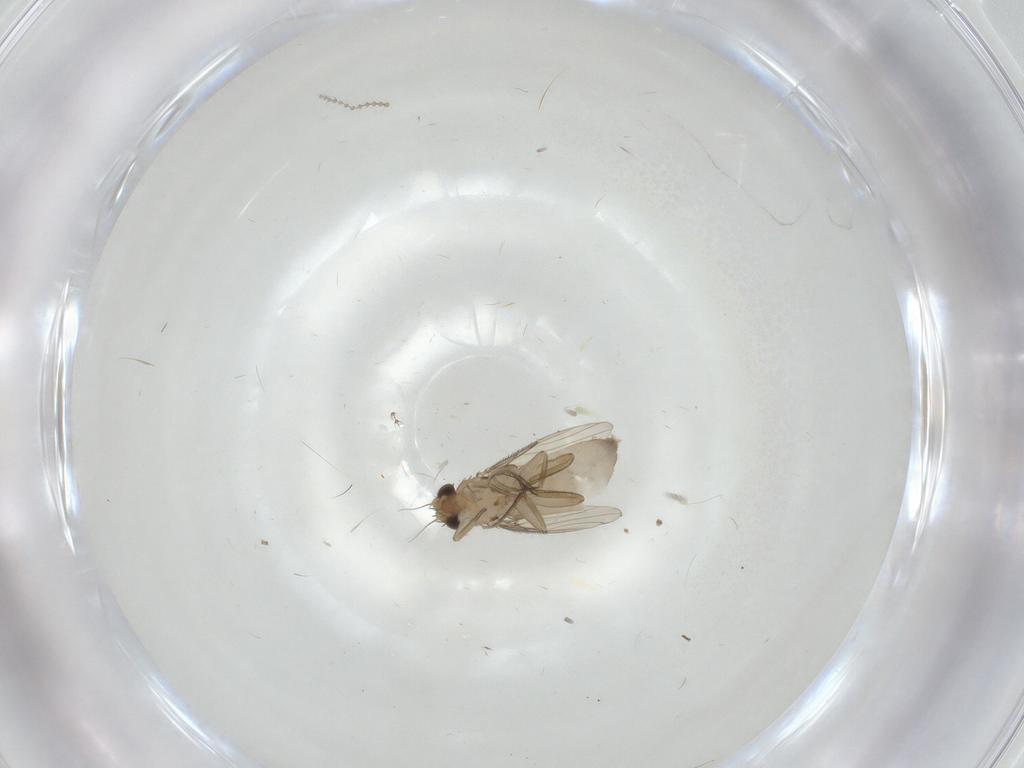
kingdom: Animalia
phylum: Arthropoda
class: Insecta
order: Diptera
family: Phoridae
